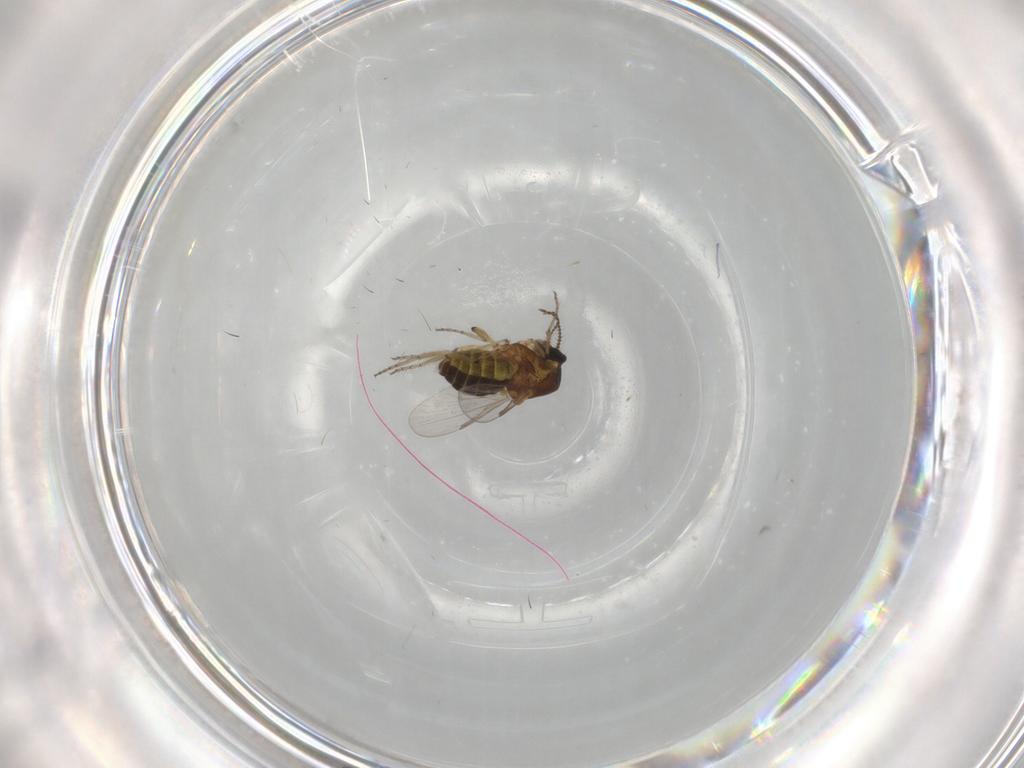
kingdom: Animalia
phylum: Arthropoda
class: Insecta
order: Diptera
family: Ceratopogonidae
